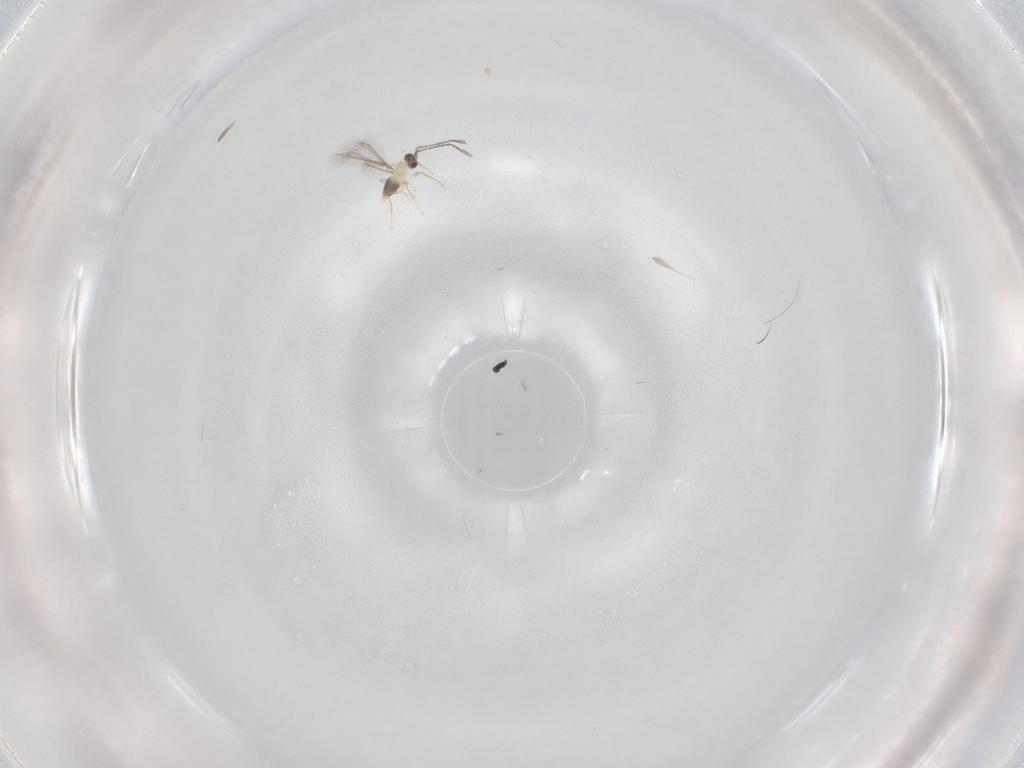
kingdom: Animalia
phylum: Arthropoda
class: Insecta
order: Hymenoptera
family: Mymaridae
